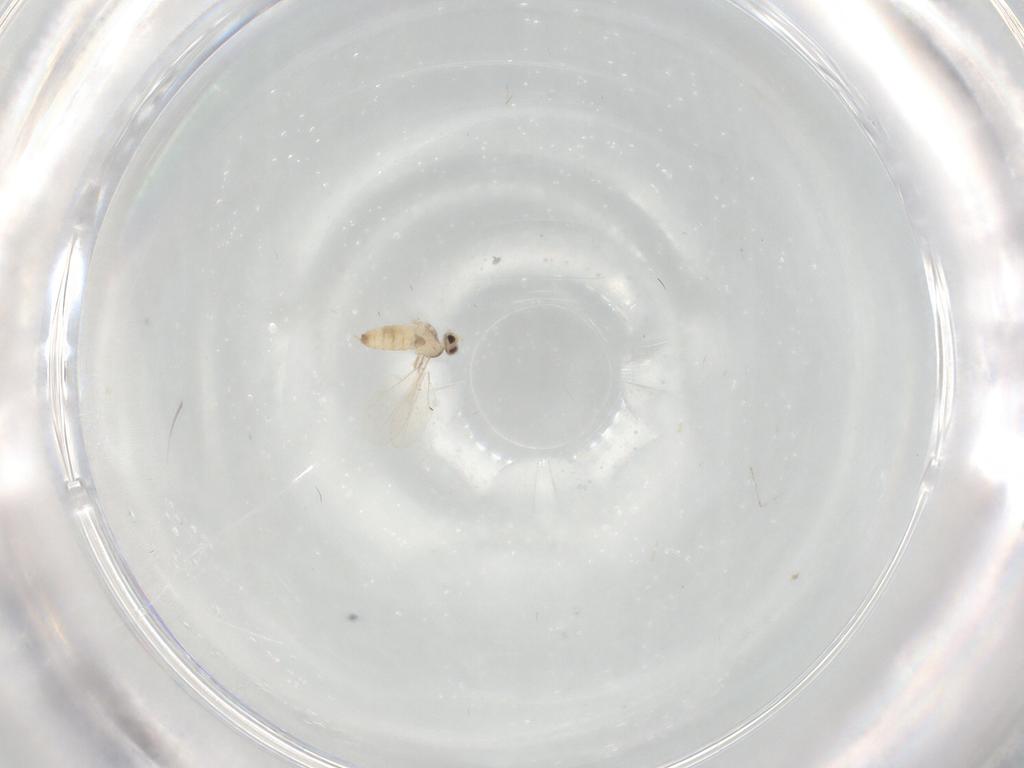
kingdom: Animalia
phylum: Arthropoda
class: Insecta
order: Diptera
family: Cecidomyiidae
